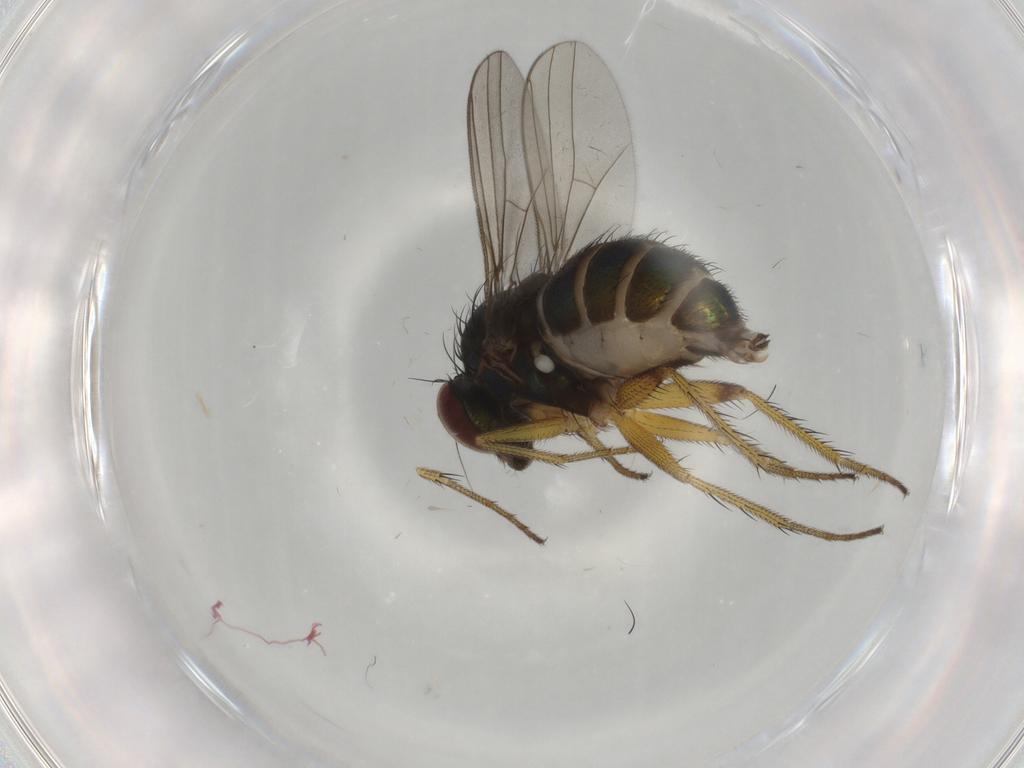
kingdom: Animalia
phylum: Arthropoda
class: Insecta
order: Diptera
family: Dolichopodidae
